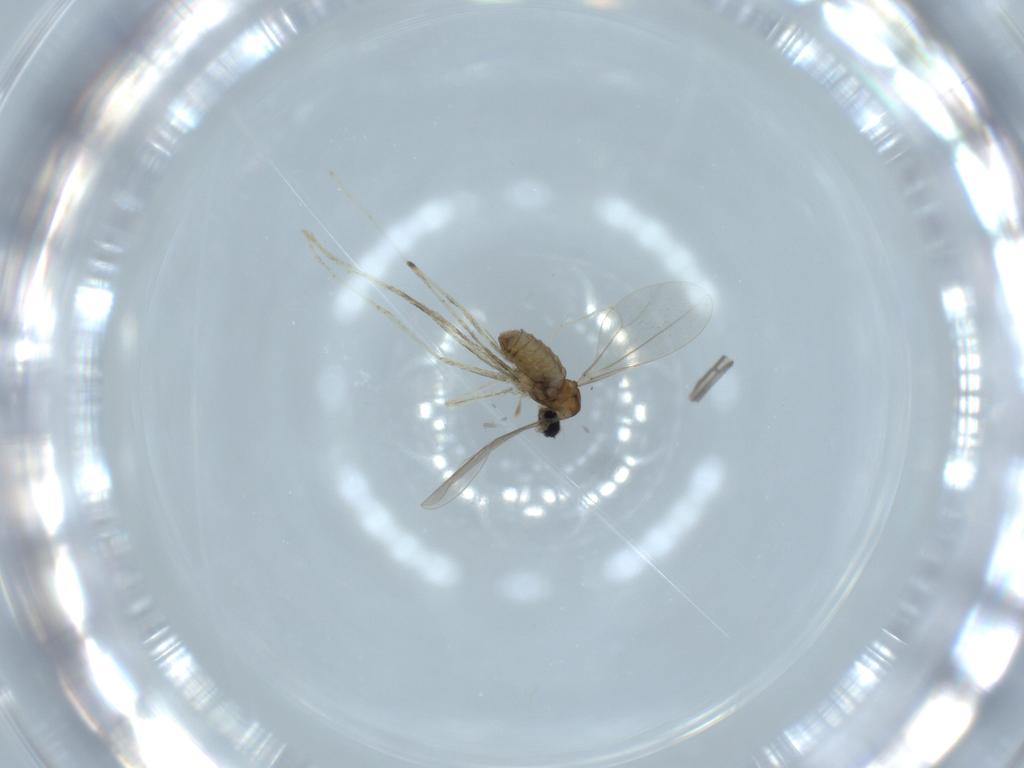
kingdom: Animalia
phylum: Arthropoda
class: Insecta
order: Diptera
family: Cecidomyiidae
